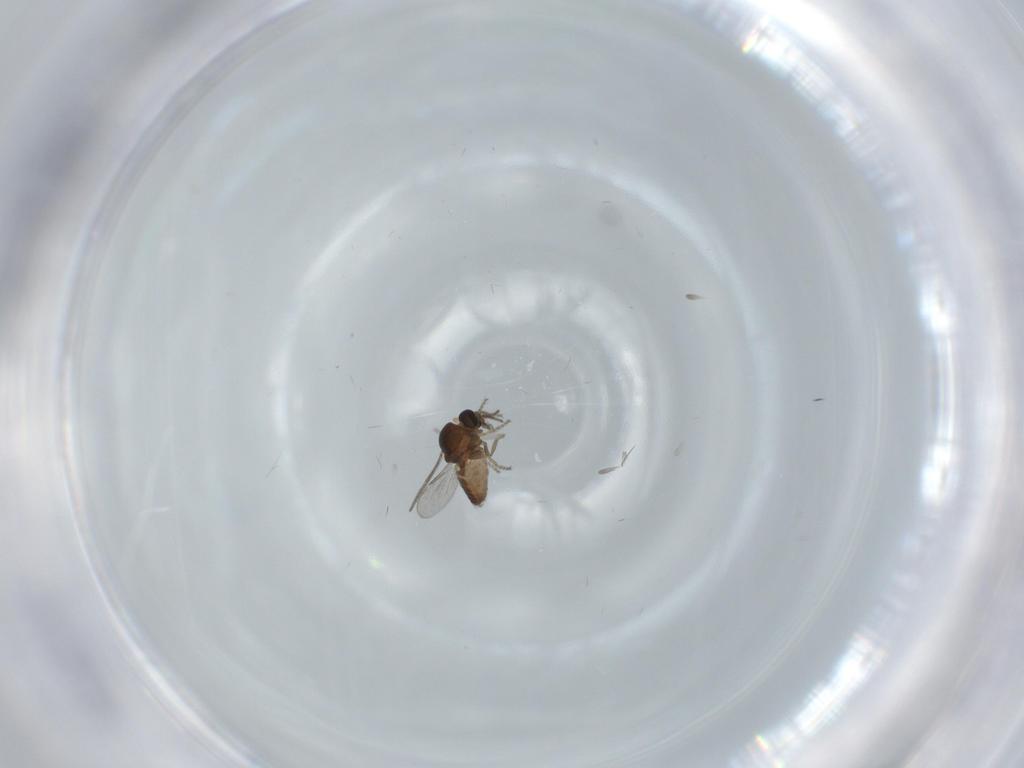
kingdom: Animalia
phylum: Arthropoda
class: Insecta
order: Diptera
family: Ceratopogonidae
